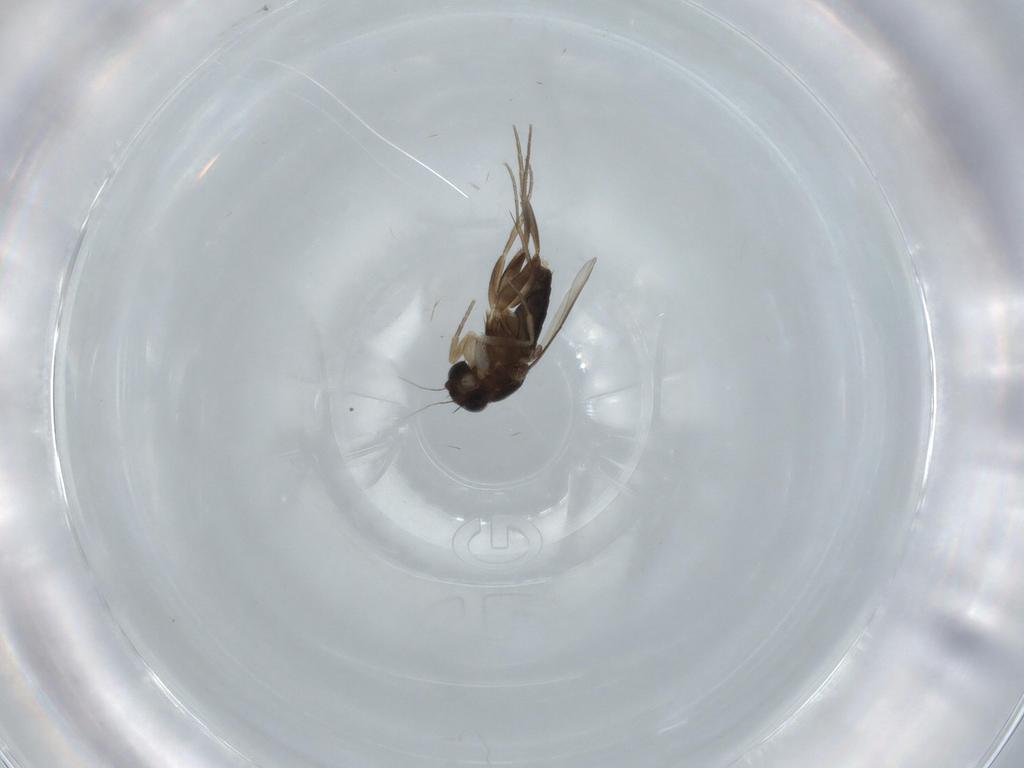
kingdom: Animalia
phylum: Arthropoda
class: Insecta
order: Diptera
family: Phoridae
